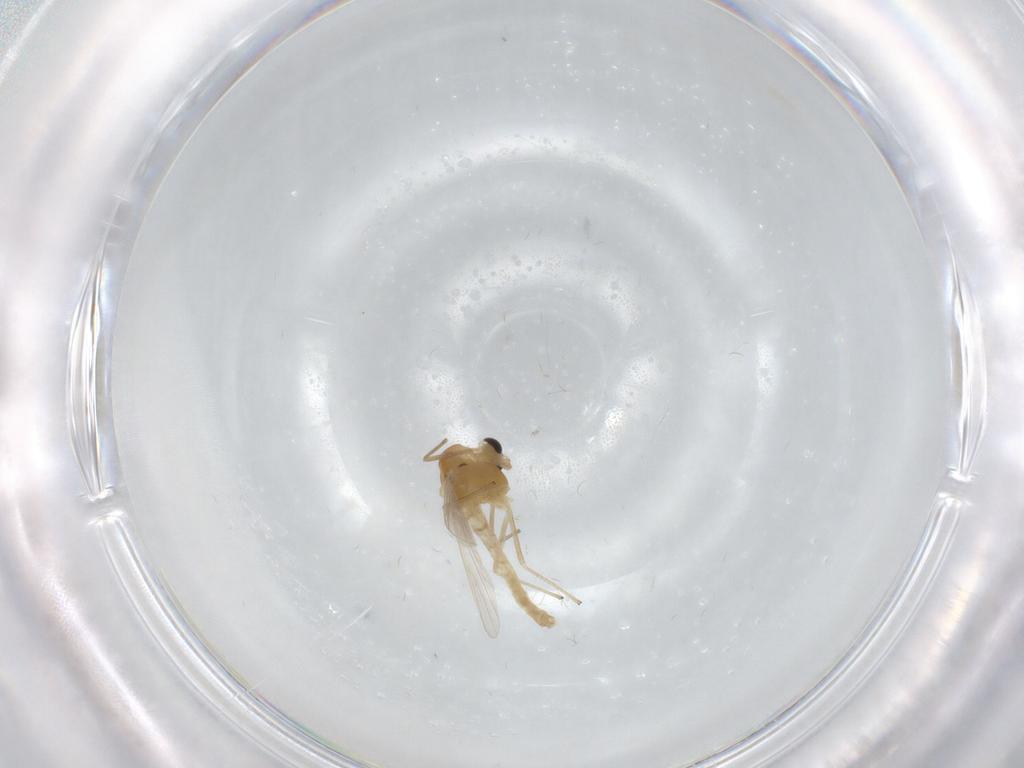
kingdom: Animalia
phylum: Arthropoda
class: Insecta
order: Diptera
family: Chironomidae
